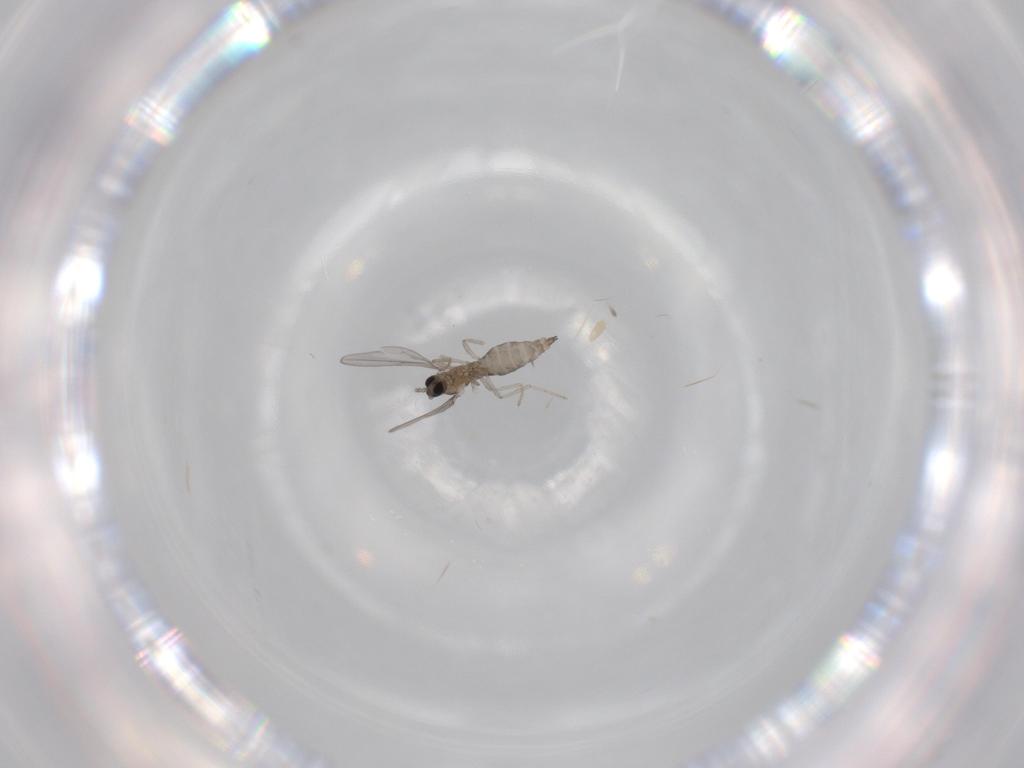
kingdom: Animalia
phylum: Arthropoda
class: Insecta
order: Diptera
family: Cecidomyiidae
